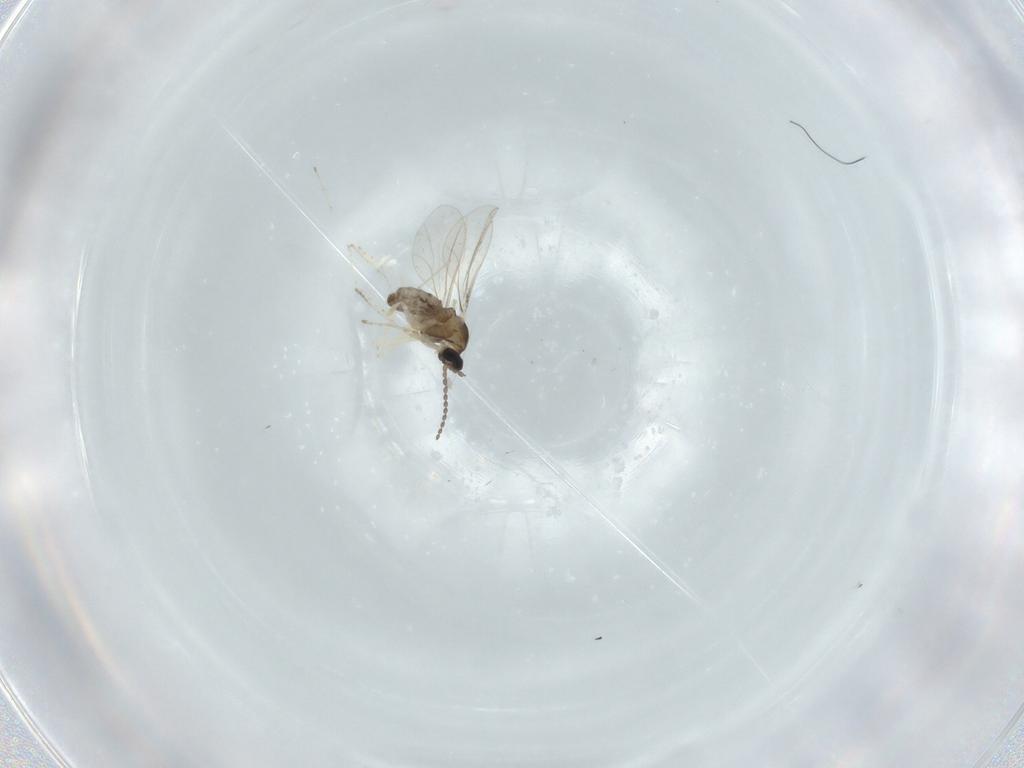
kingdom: Animalia
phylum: Arthropoda
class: Insecta
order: Diptera
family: Cecidomyiidae
